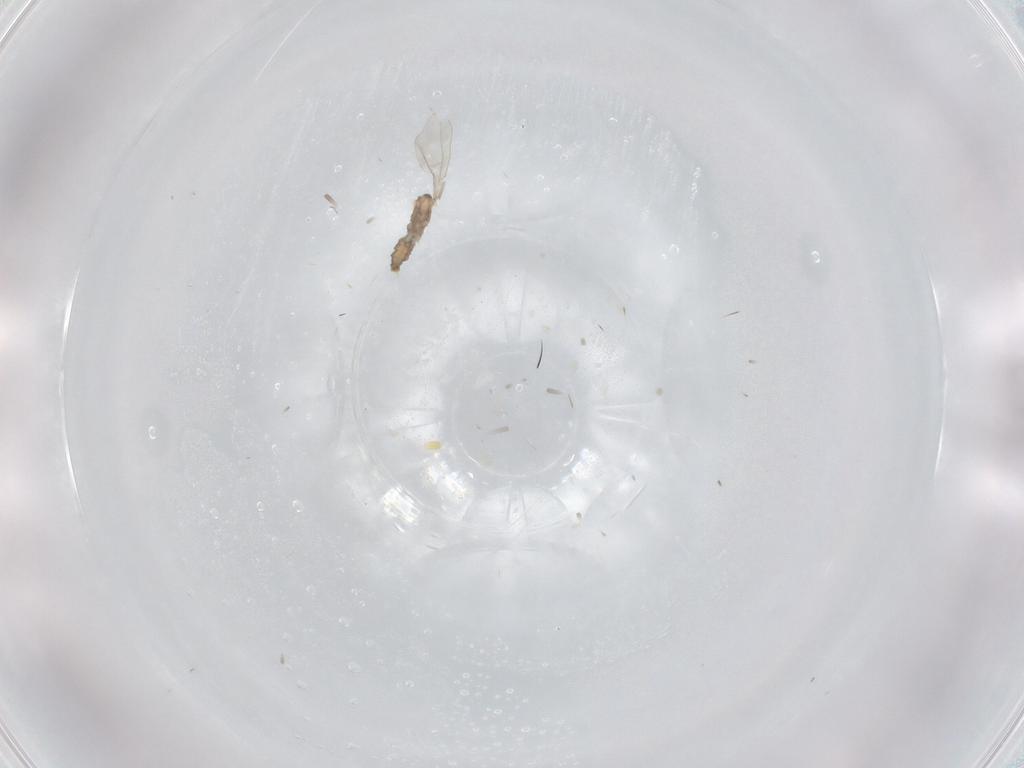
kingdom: Animalia
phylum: Arthropoda
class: Insecta
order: Diptera
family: Cecidomyiidae
